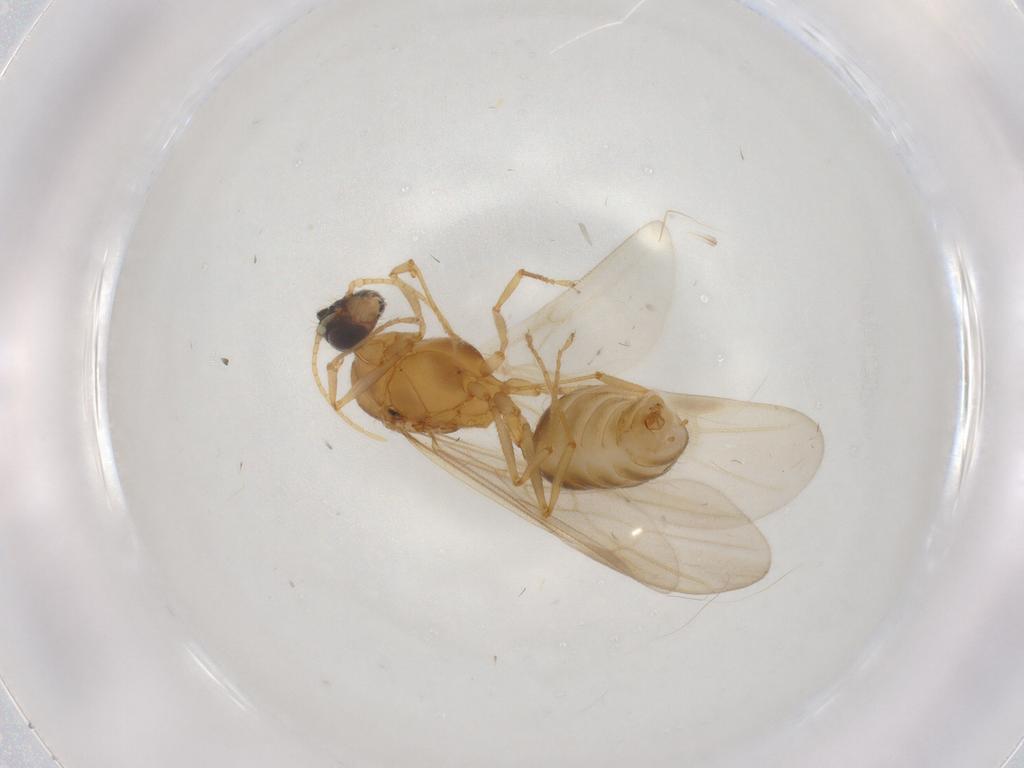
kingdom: Animalia
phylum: Arthropoda
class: Insecta
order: Hymenoptera
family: Formicidae
